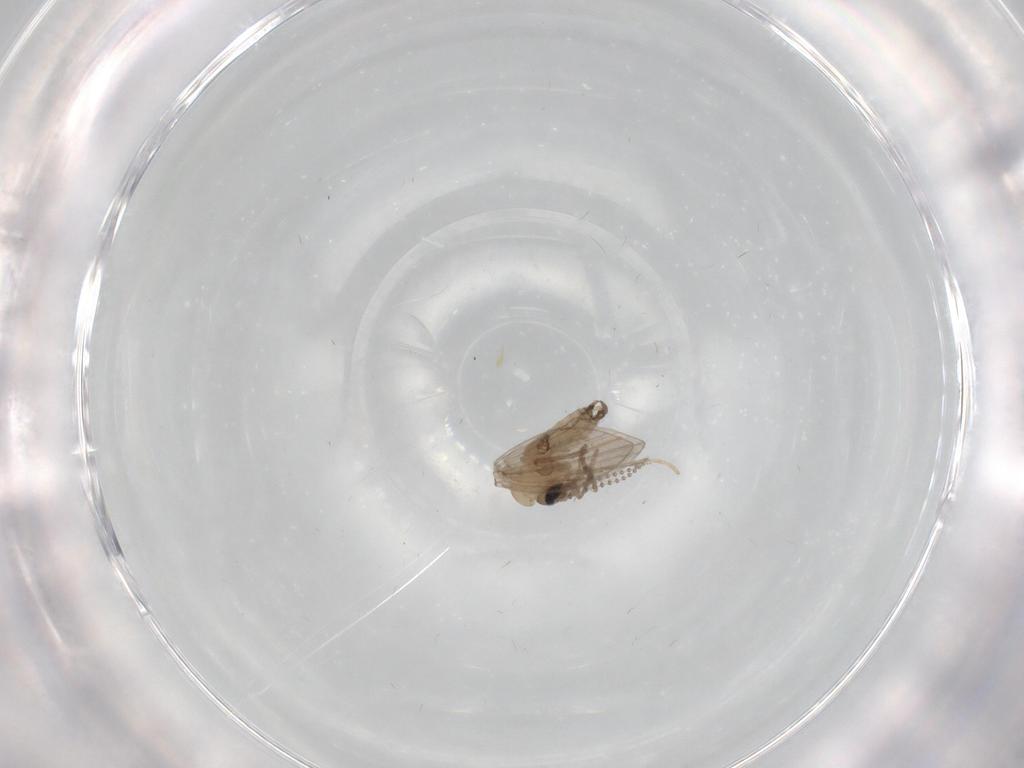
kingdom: Animalia
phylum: Arthropoda
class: Insecta
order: Diptera
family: Psychodidae
